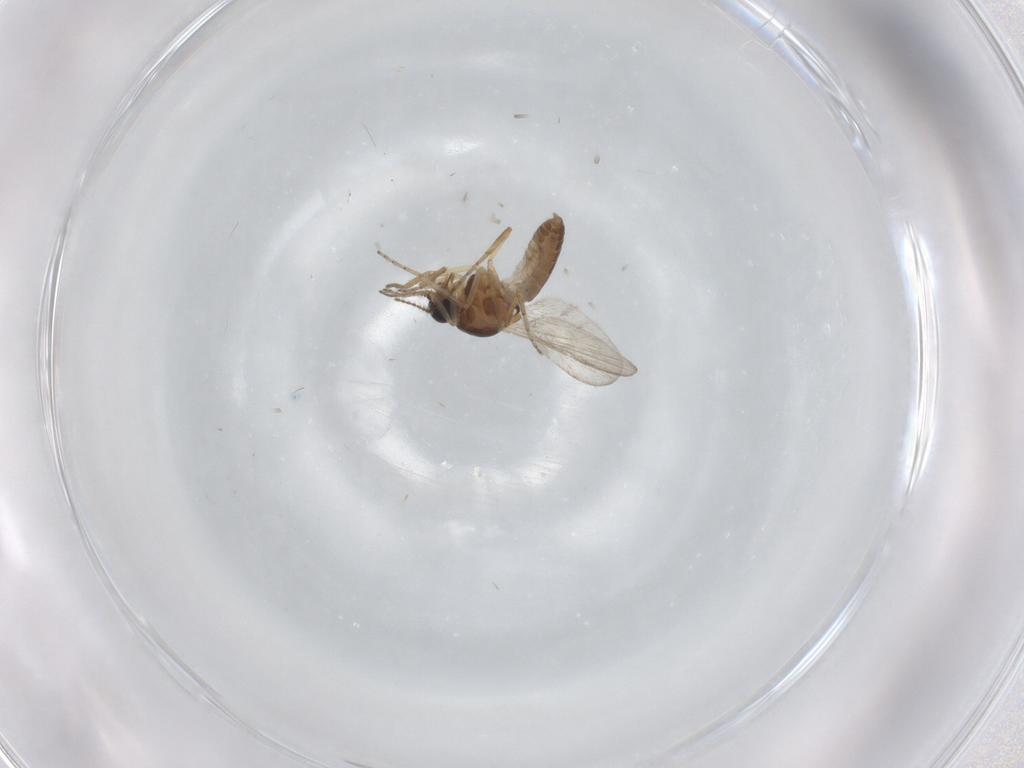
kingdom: Animalia
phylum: Arthropoda
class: Insecta
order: Diptera
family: Ceratopogonidae
